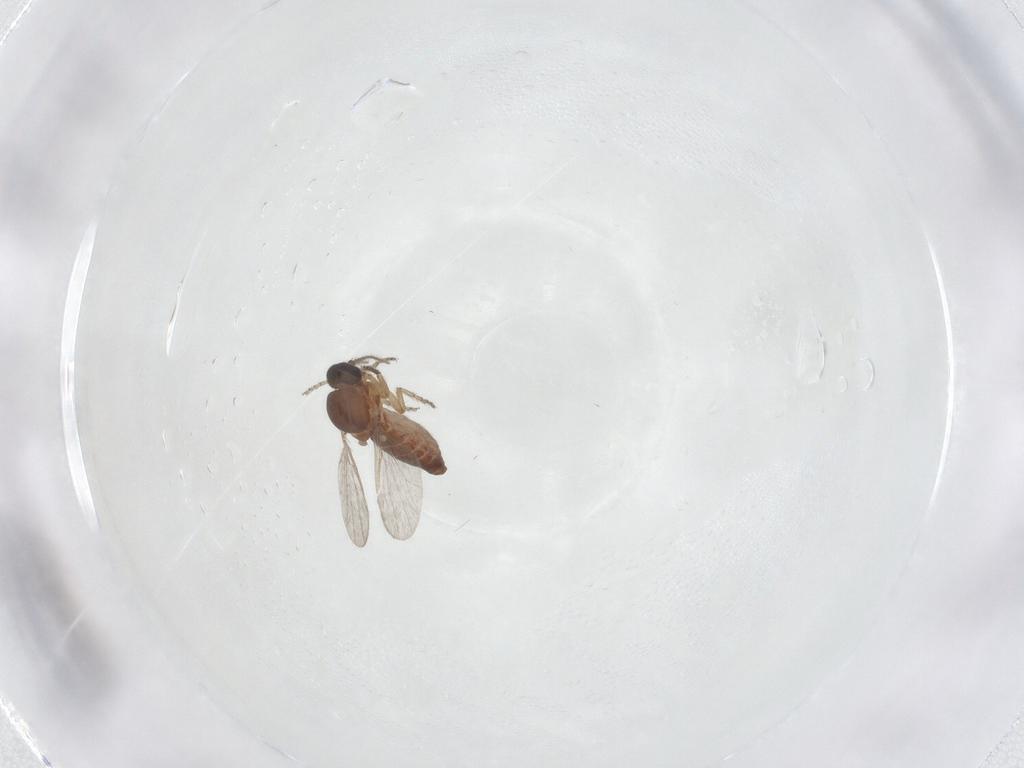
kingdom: Animalia
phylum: Arthropoda
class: Insecta
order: Diptera
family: Ceratopogonidae
